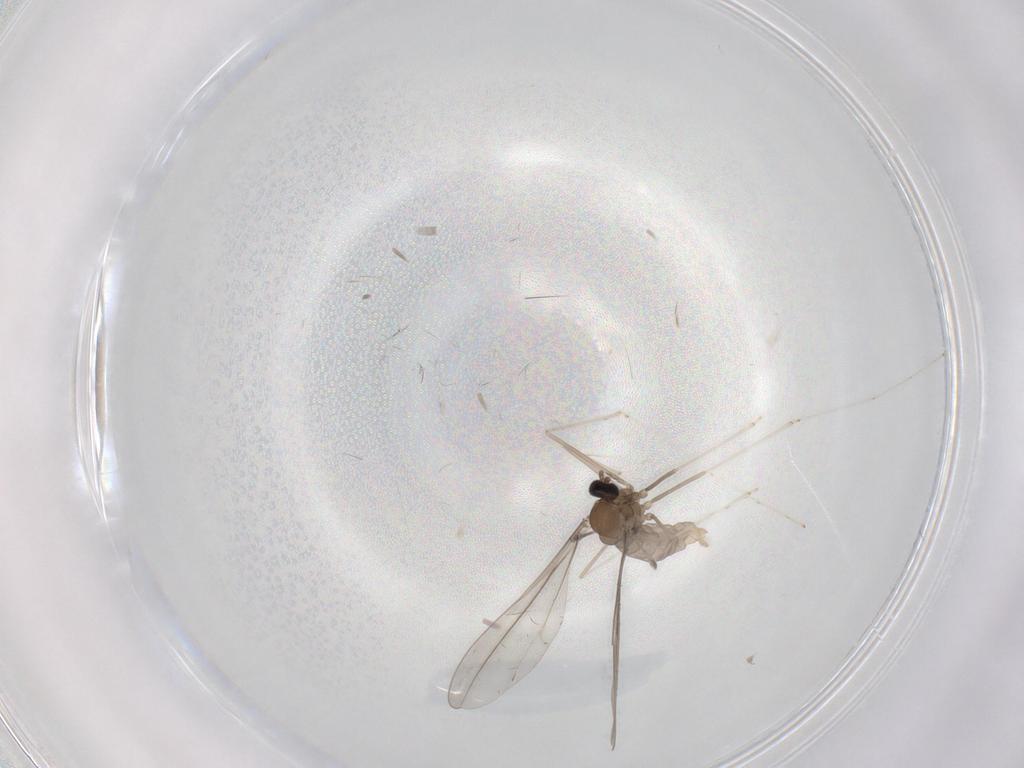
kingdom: Animalia
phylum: Arthropoda
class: Insecta
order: Diptera
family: Cecidomyiidae
